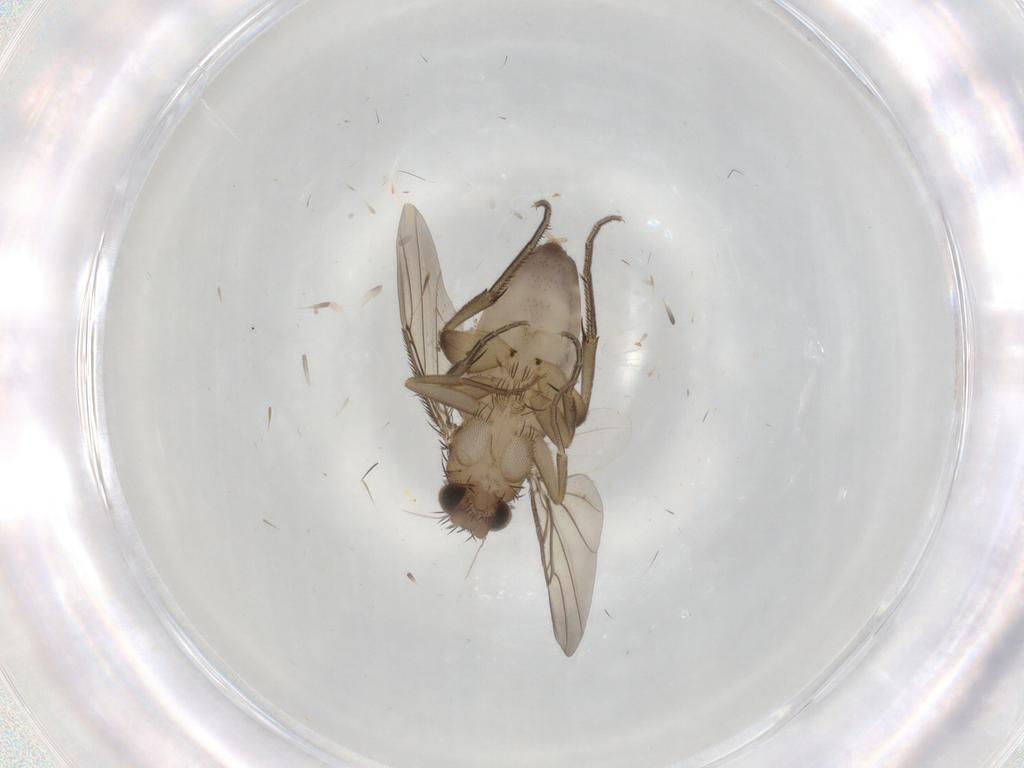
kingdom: Animalia
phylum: Arthropoda
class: Insecta
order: Diptera
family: Phoridae
